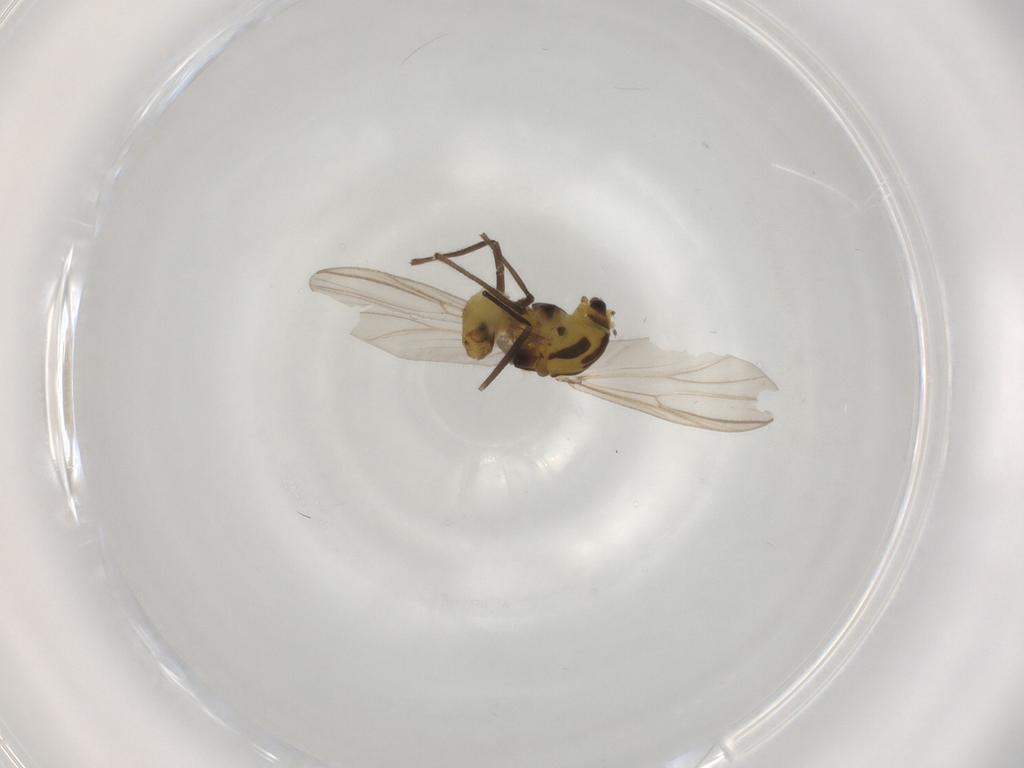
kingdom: Animalia
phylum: Arthropoda
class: Insecta
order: Diptera
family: Chironomidae
